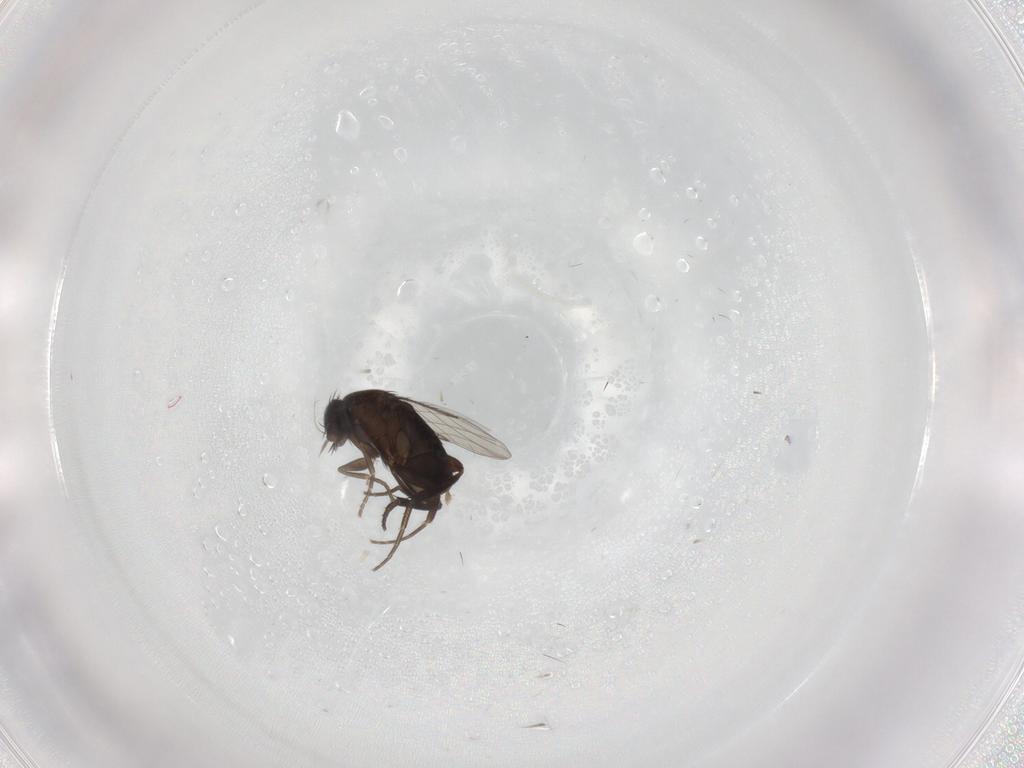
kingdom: Animalia
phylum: Arthropoda
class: Insecta
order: Diptera
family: Phoridae
